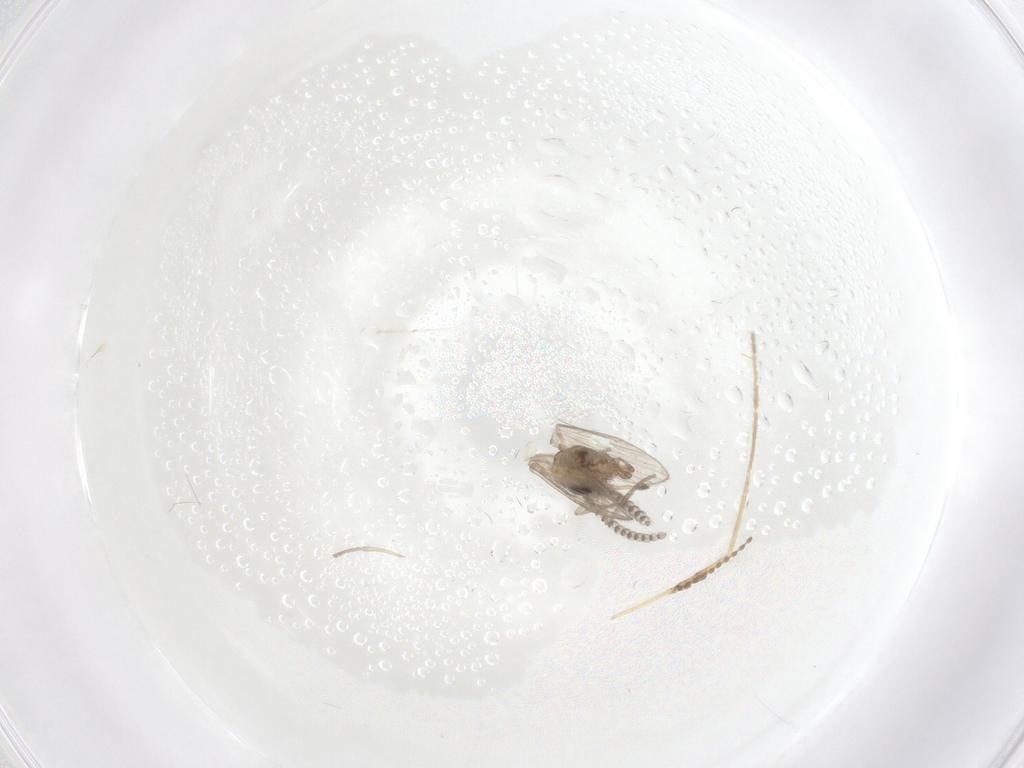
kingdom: Animalia
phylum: Arthropoda
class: Insecta
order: Diptera
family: Psychodidae
